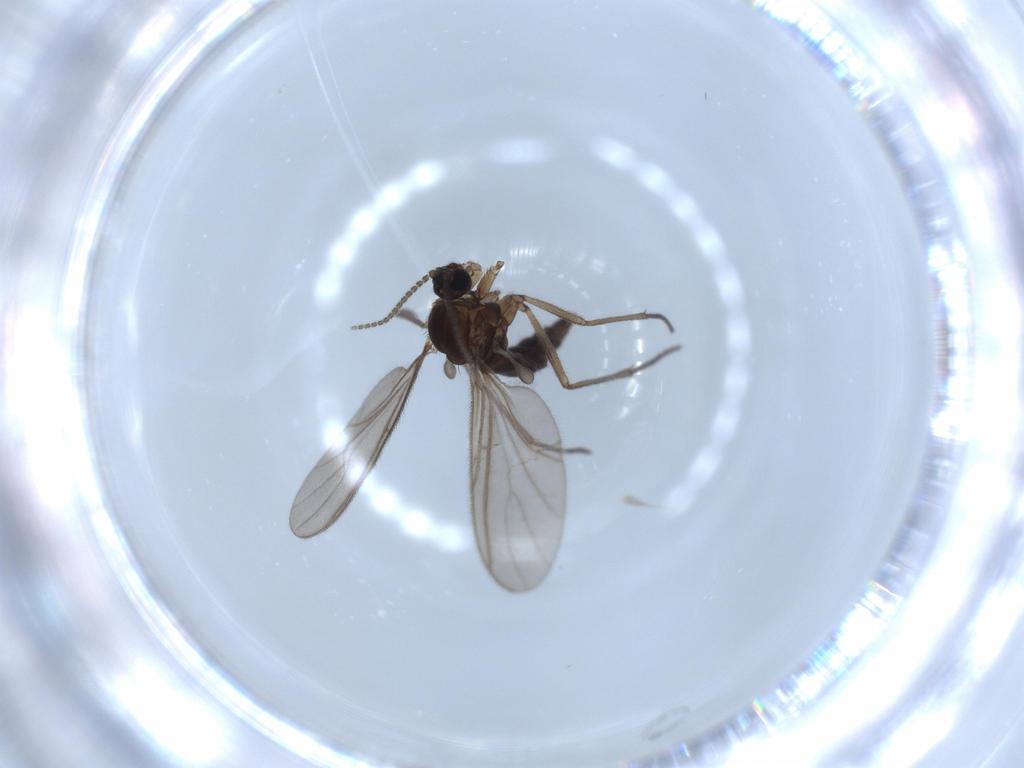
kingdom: Animalia
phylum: Arthropoda
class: Insecta
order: Diptera
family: Sciaridae
